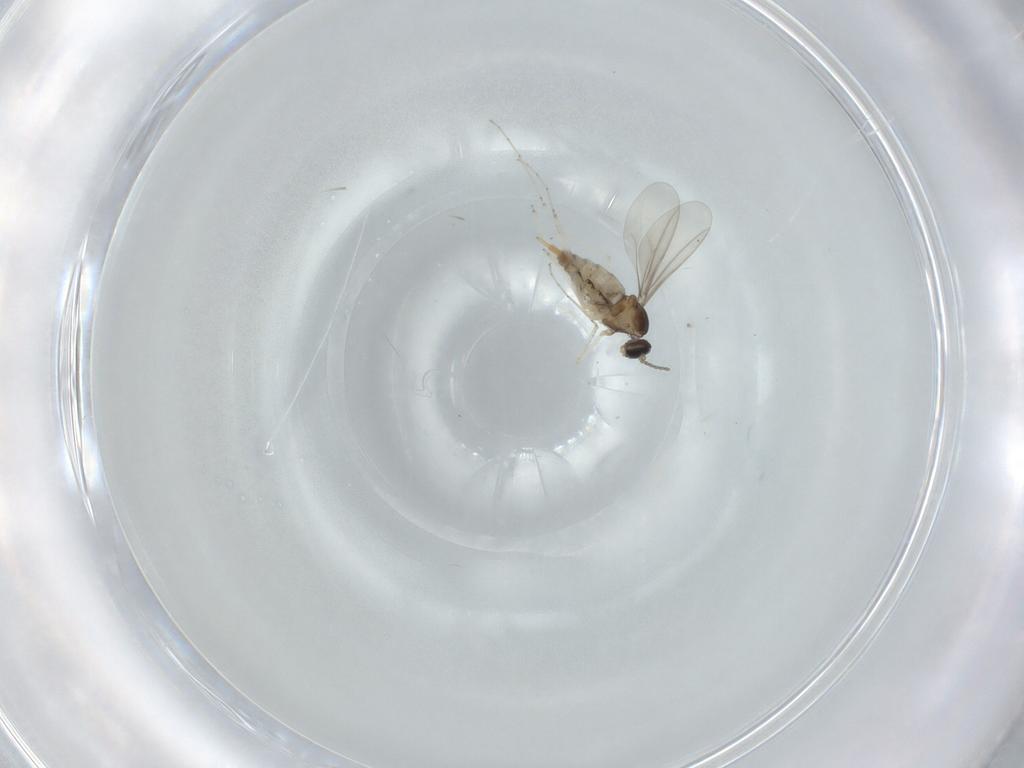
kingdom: Animalia
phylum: Arthropoda
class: Insecta
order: Diptera
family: Cecidomyiidae
